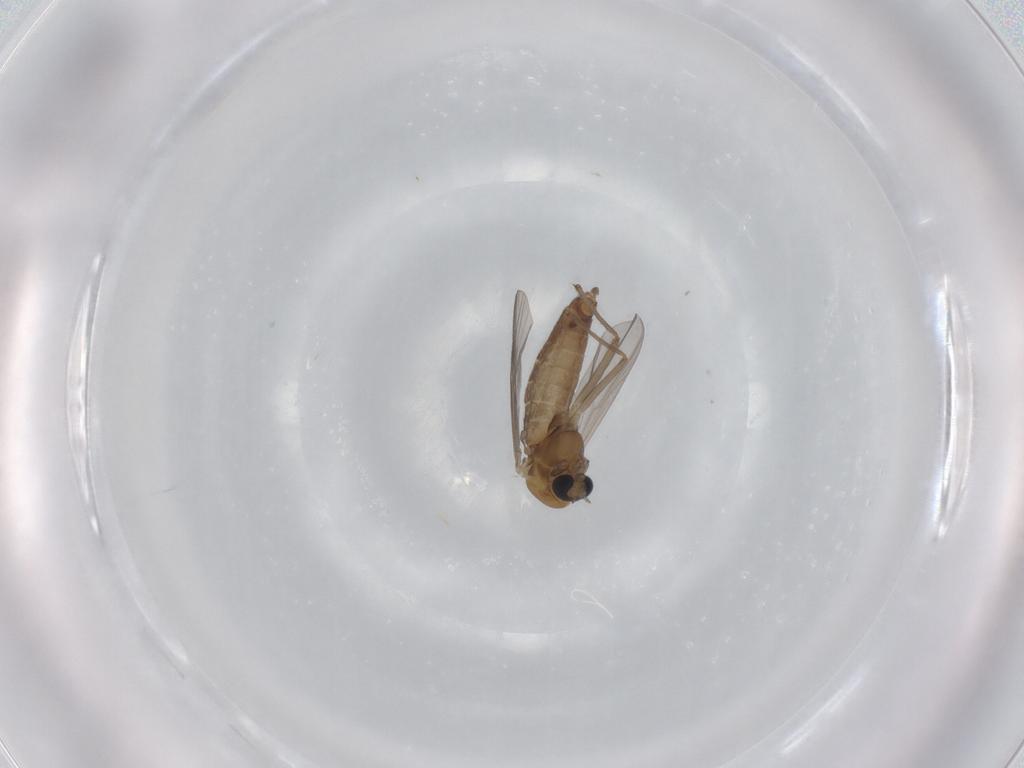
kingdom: Animalia
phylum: Arthropoda
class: Insecta
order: Diptera
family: Chironomidae
